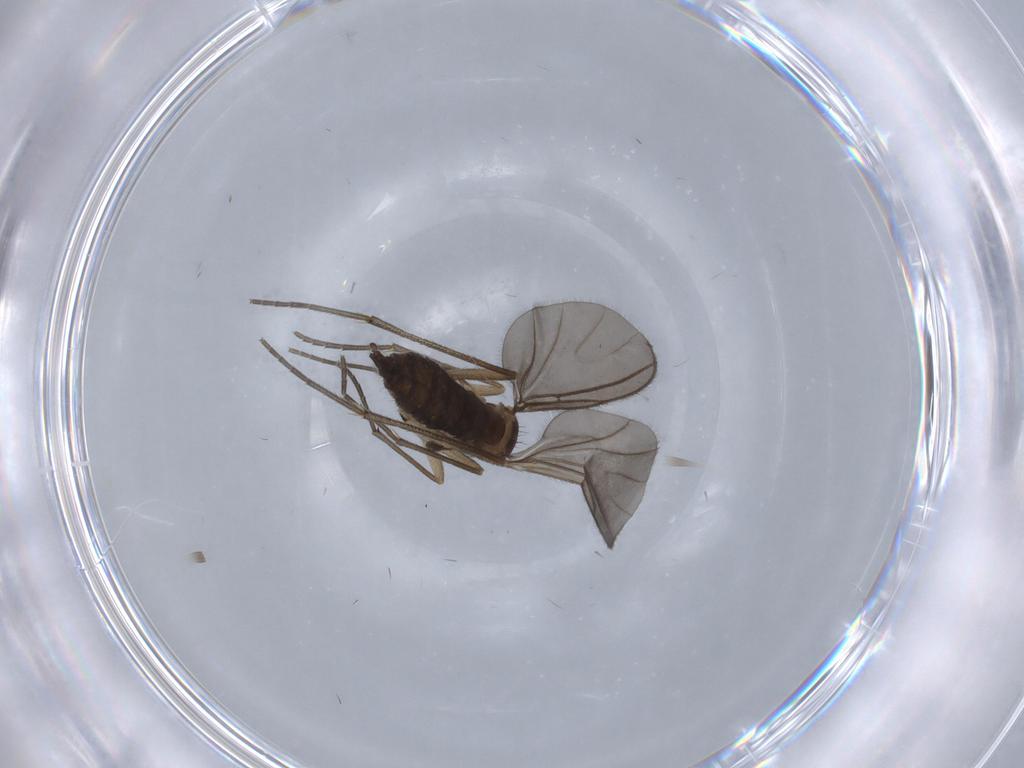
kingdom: Animalia
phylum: Arthropoda
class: Insecta
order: Diptera
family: Sciaridae
